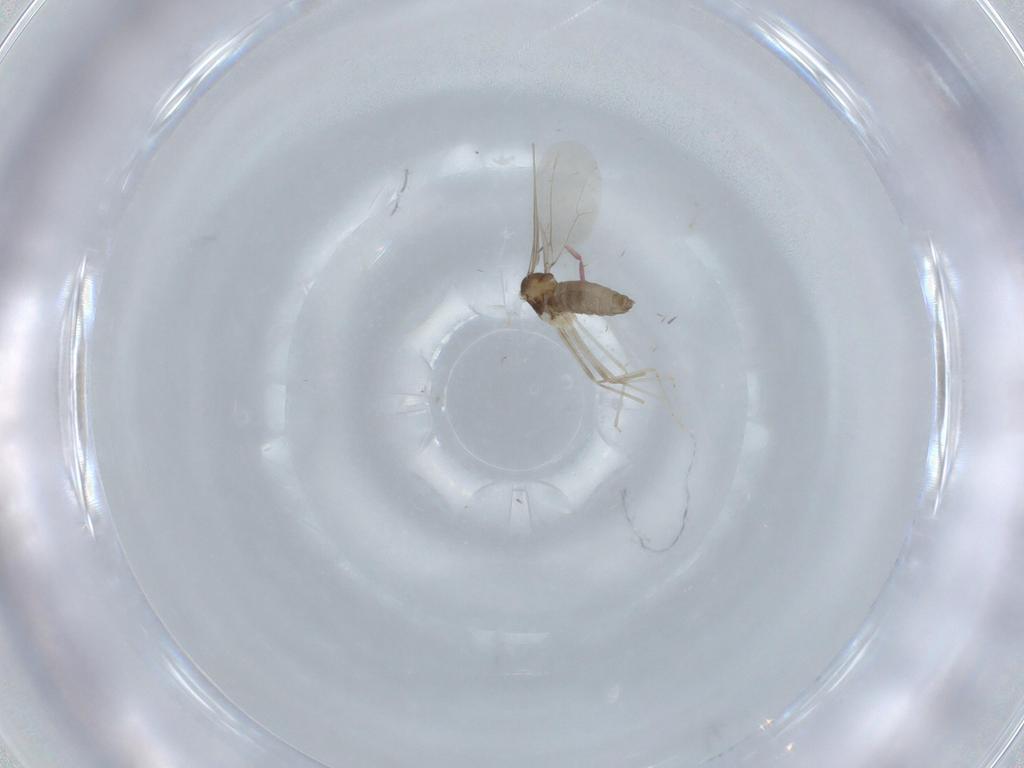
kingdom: Animalia
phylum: Arthropoda
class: Insecta
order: Diptera
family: Cecidomyiidae
